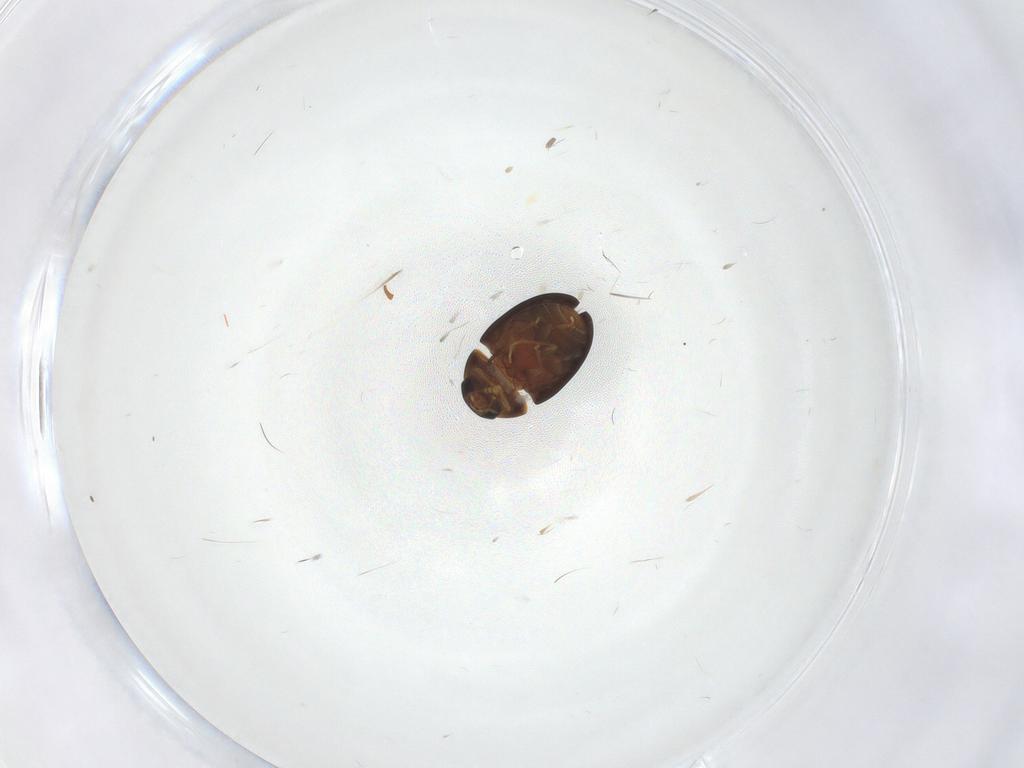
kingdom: Animalia
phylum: Arthropoda
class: Insecta
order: Coleoptera
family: Phalacridae
